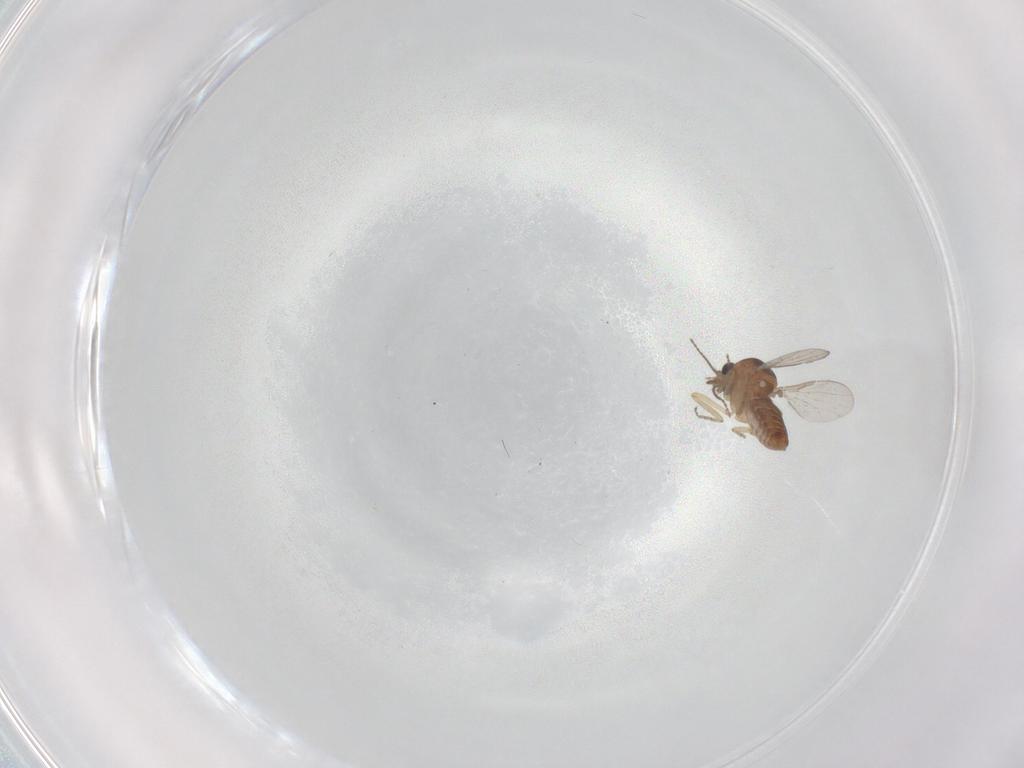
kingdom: Animalia
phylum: Arthropoda
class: Insecta
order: Diptera
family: Ceratopogonidae
